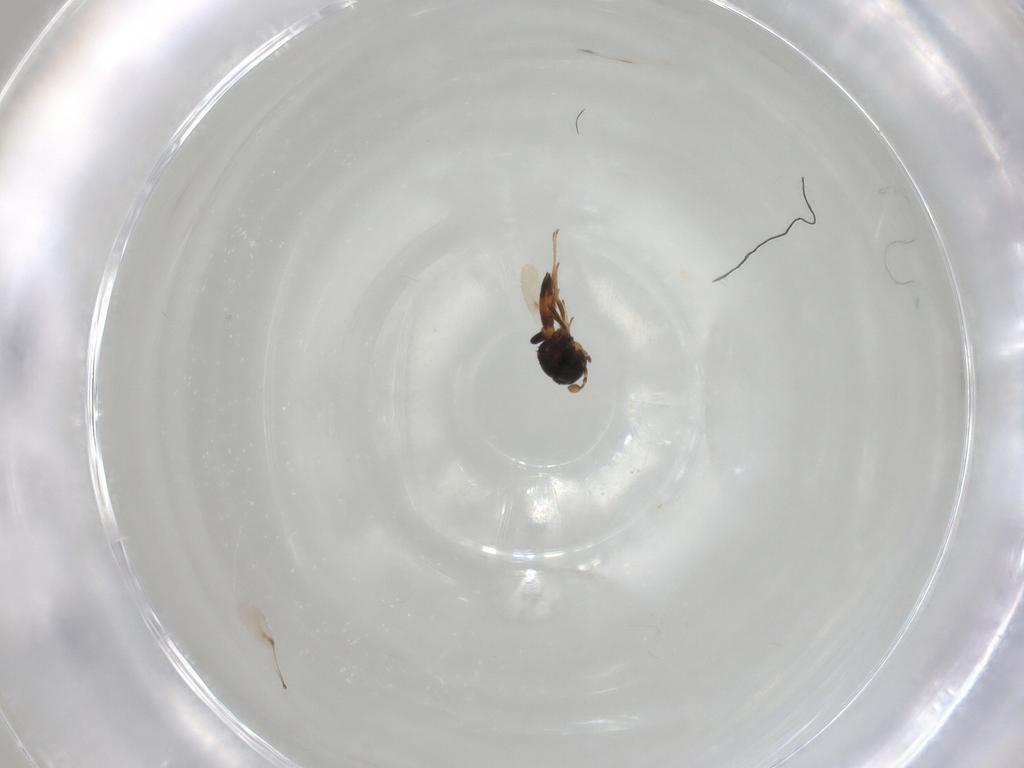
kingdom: Animalia
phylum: Arthropoda
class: Insecta
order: Hymenoptera
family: Scelionidae
